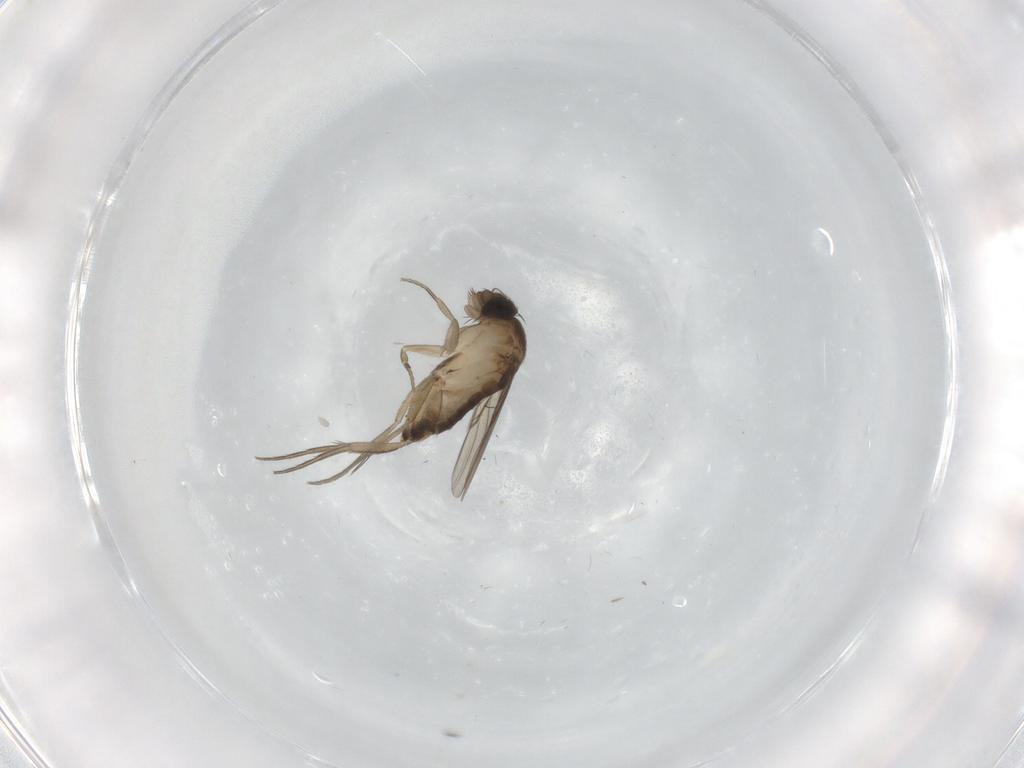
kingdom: Animalia
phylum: Arthropoda
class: Insecta
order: Diptera
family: Phoridae
